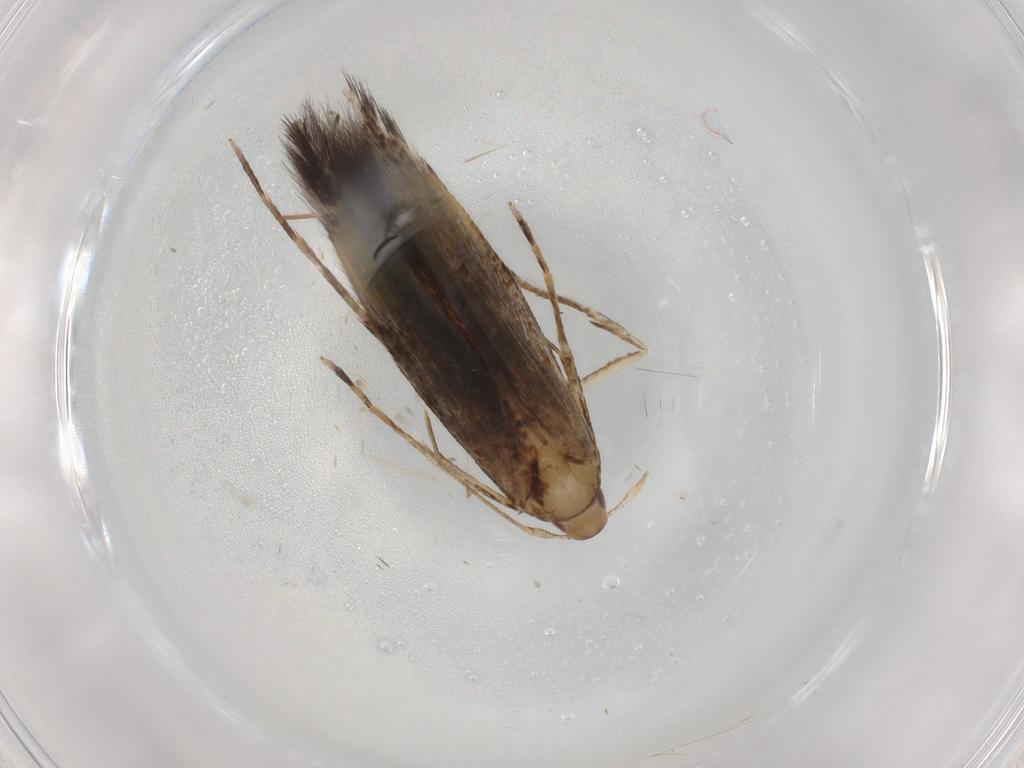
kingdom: Animalia
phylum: Arthropoda
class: Insecta
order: Lepidoptera
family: Cosmopterigidae
